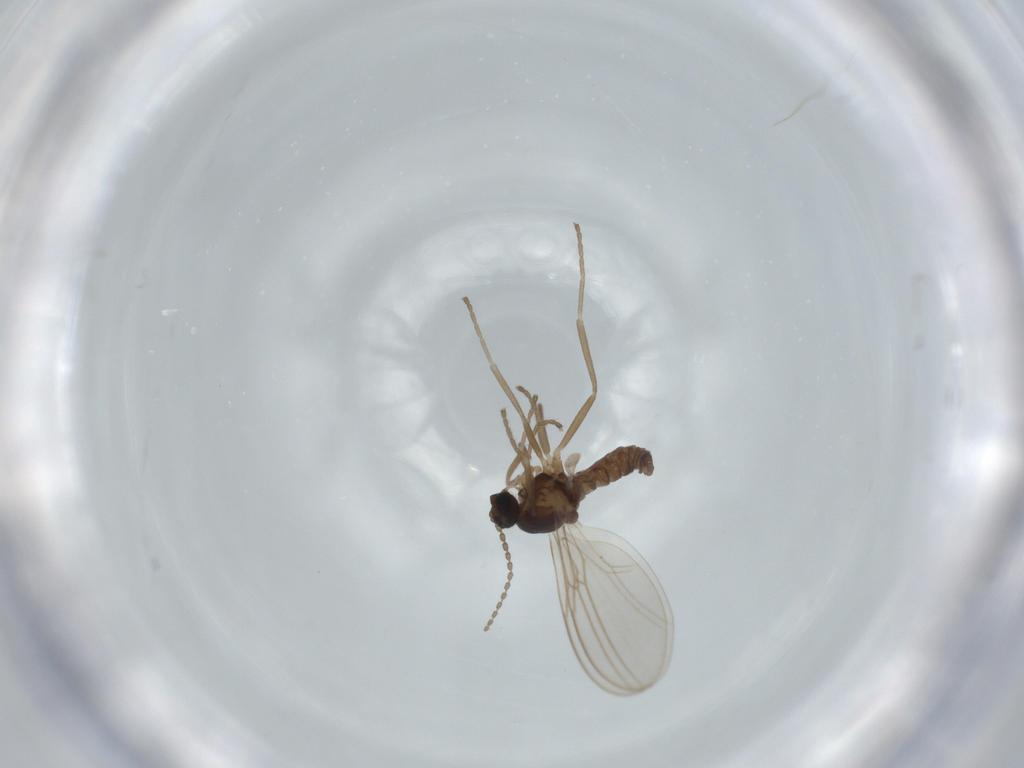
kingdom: Animalia
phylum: Arthropoda
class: Insecta
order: Diptera
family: Cecidomyiidae
